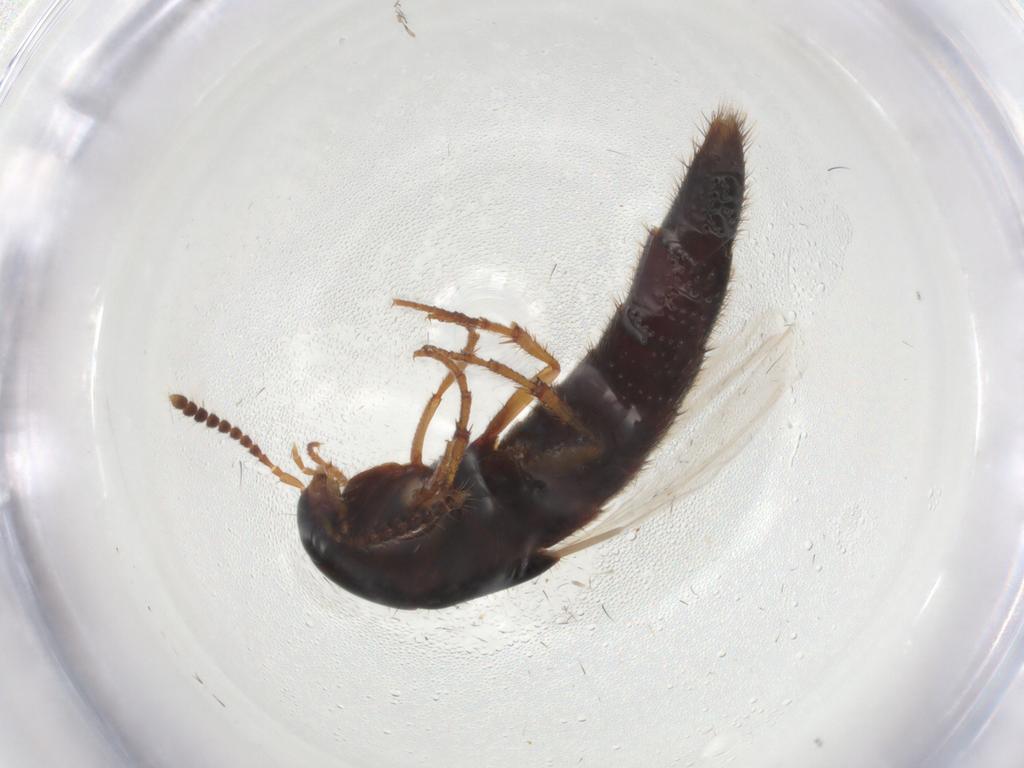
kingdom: Animalia
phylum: Arthropoda
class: Insecta
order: Coleoptera
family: Staphylinidae
